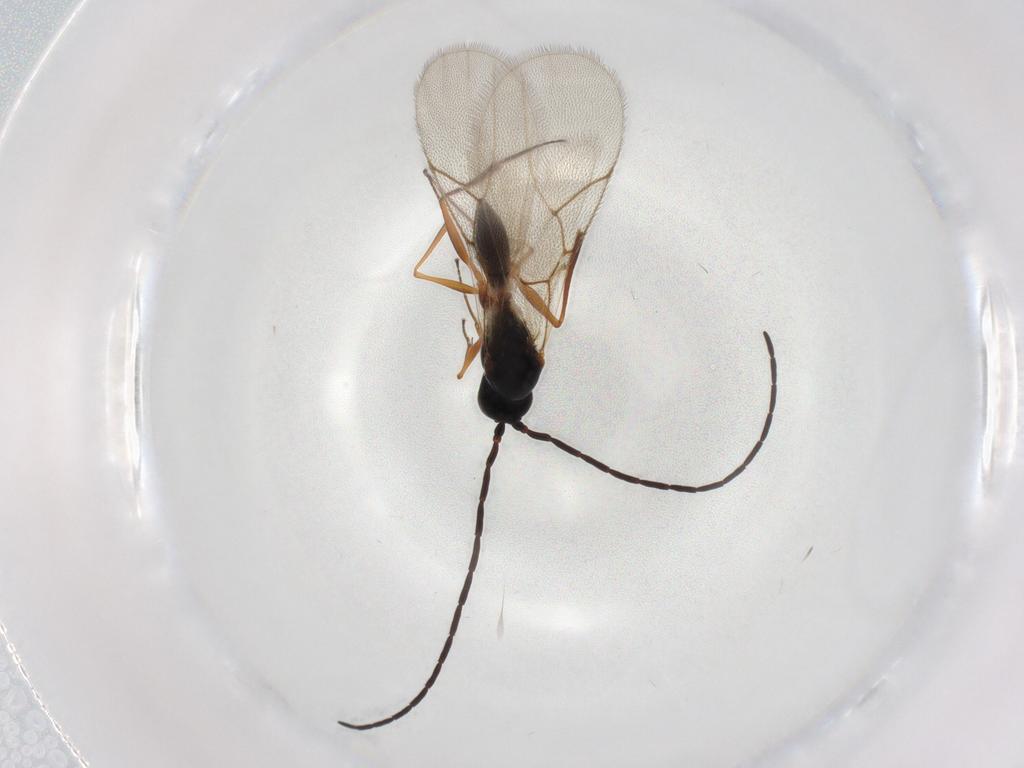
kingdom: Animalia
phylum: Arthropoda
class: Insecta
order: Hymenoptera
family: Figitidae
